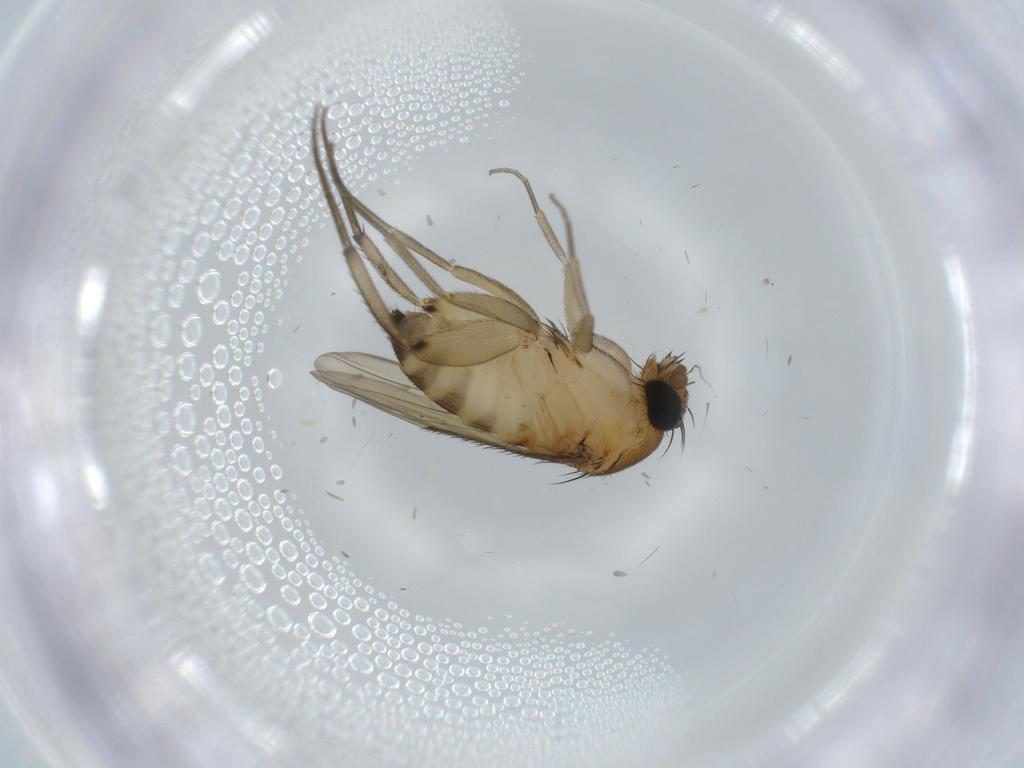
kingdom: Animalia
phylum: Arthropoda
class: Insecta
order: Diptera
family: Phoridae
